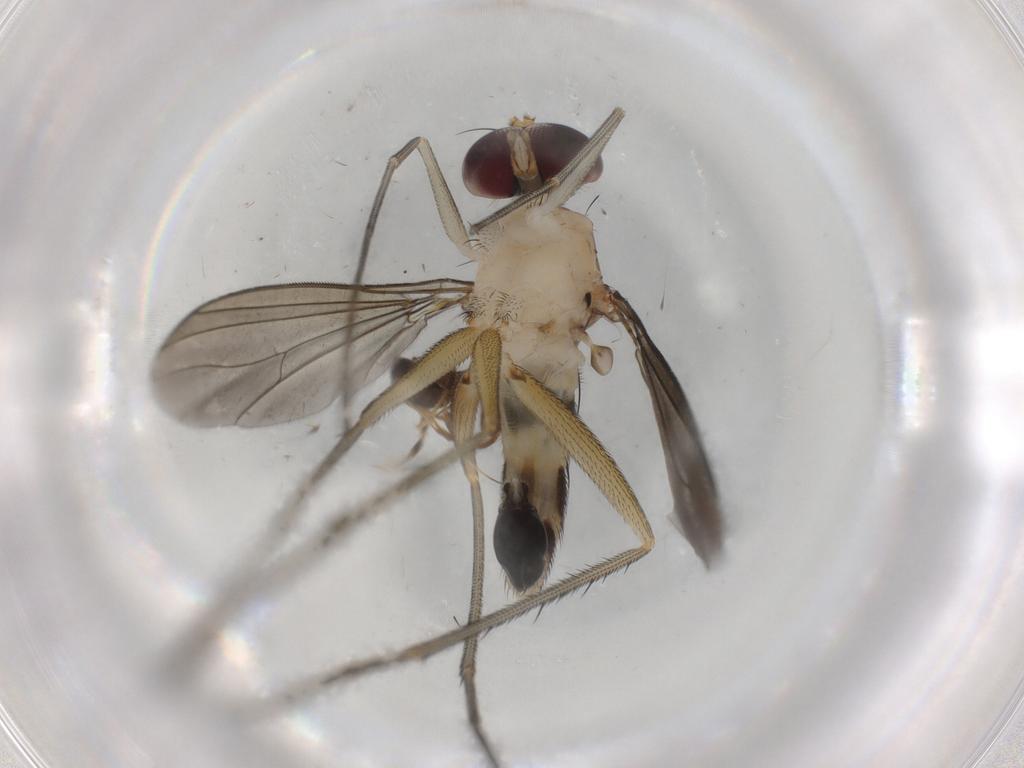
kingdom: Animalia
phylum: Arthropoda
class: Insecta
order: Diptera
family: Dolichopodidae
